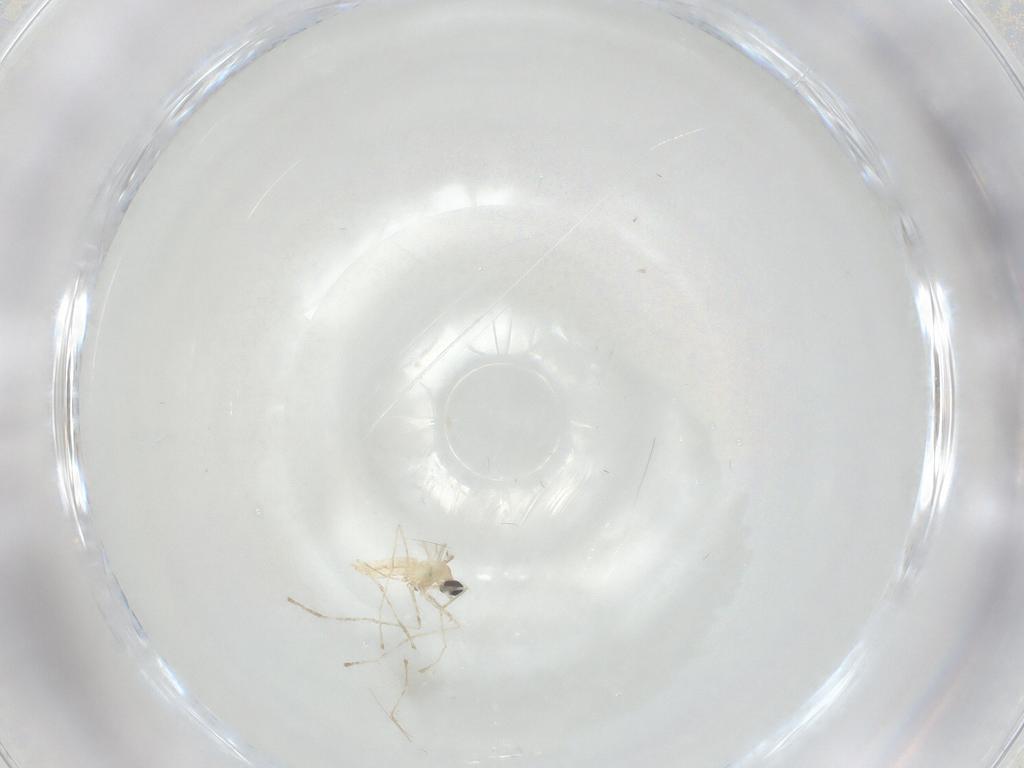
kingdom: Animalia
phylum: Arthropoda
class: Insecta
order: Diptera
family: Cecidomyiidae
